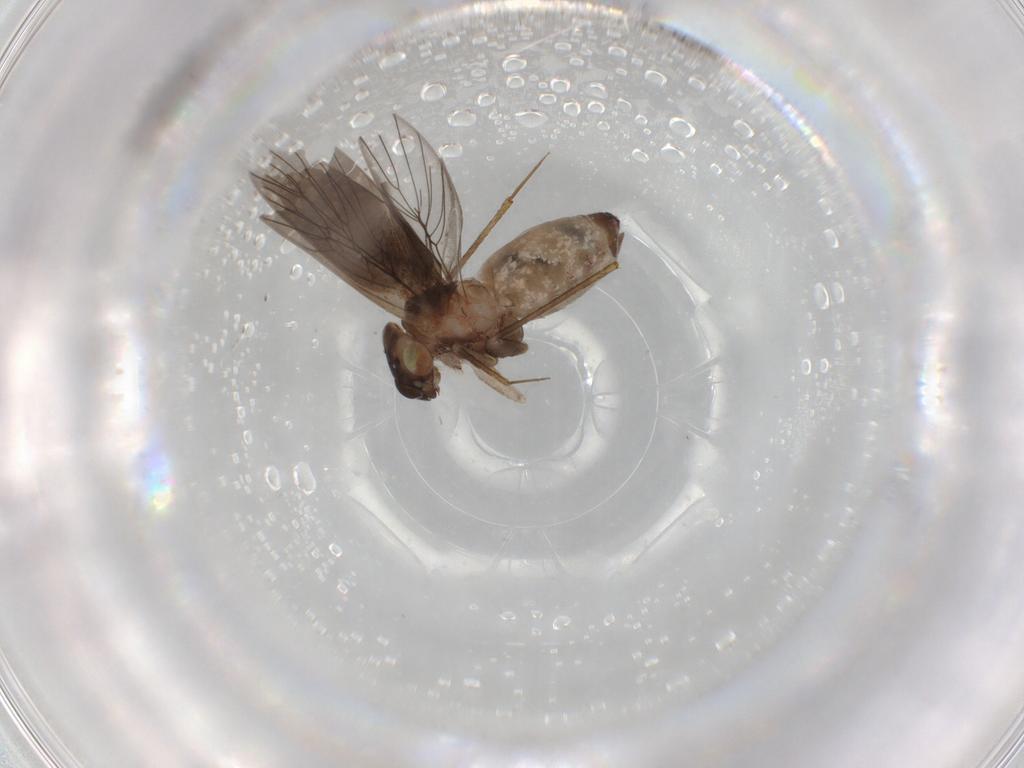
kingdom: Animalia
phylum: Arthropoda
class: Insecta
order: Psocodea
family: Lepidopsocidae
